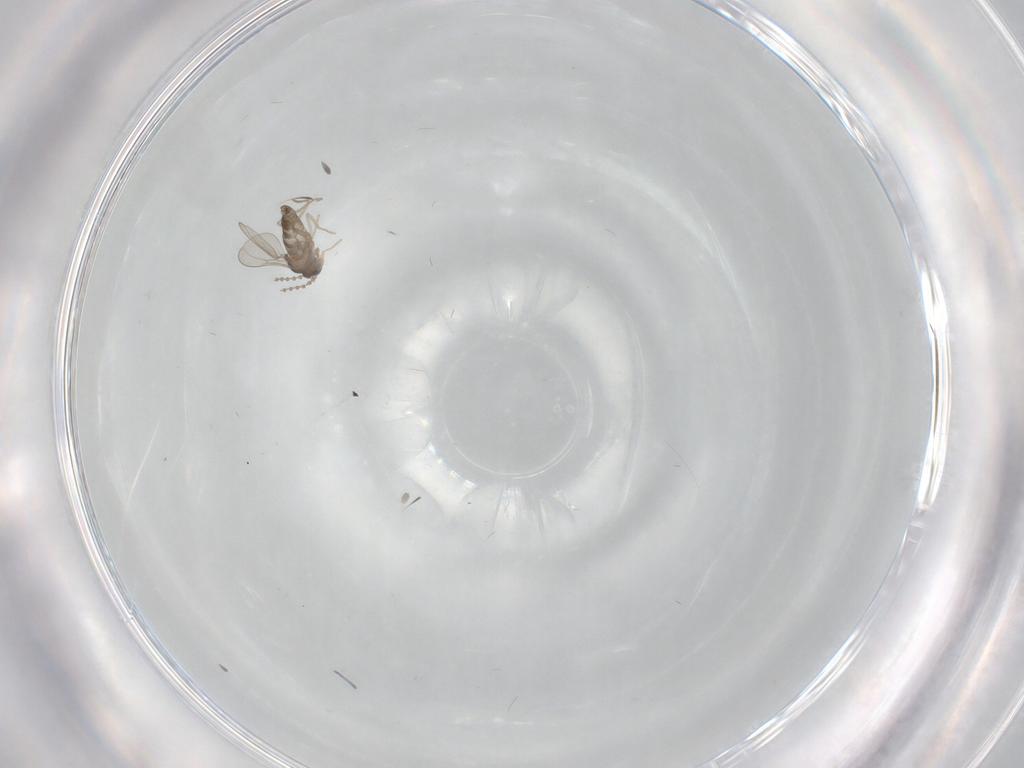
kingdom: Animalia
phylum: Arthropoda
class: Insecta
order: Diptera
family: Cecidomyiidae
